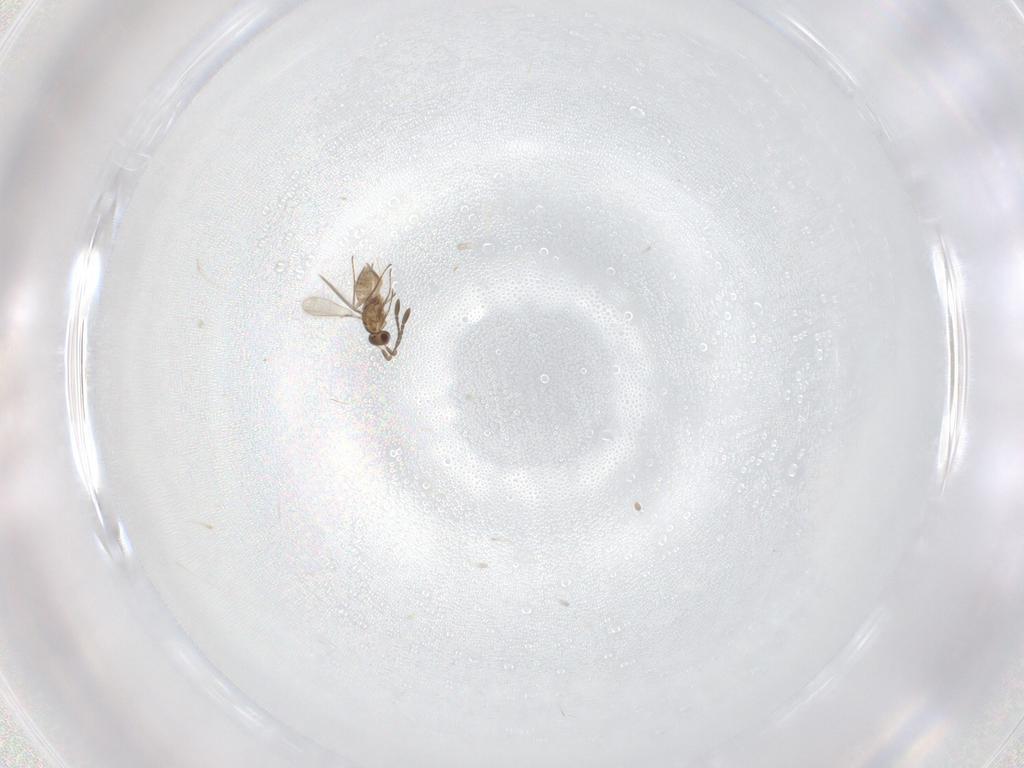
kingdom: Animalia
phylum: Arthropoda
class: Insecta
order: Hymenoptera
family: Mymaridae
